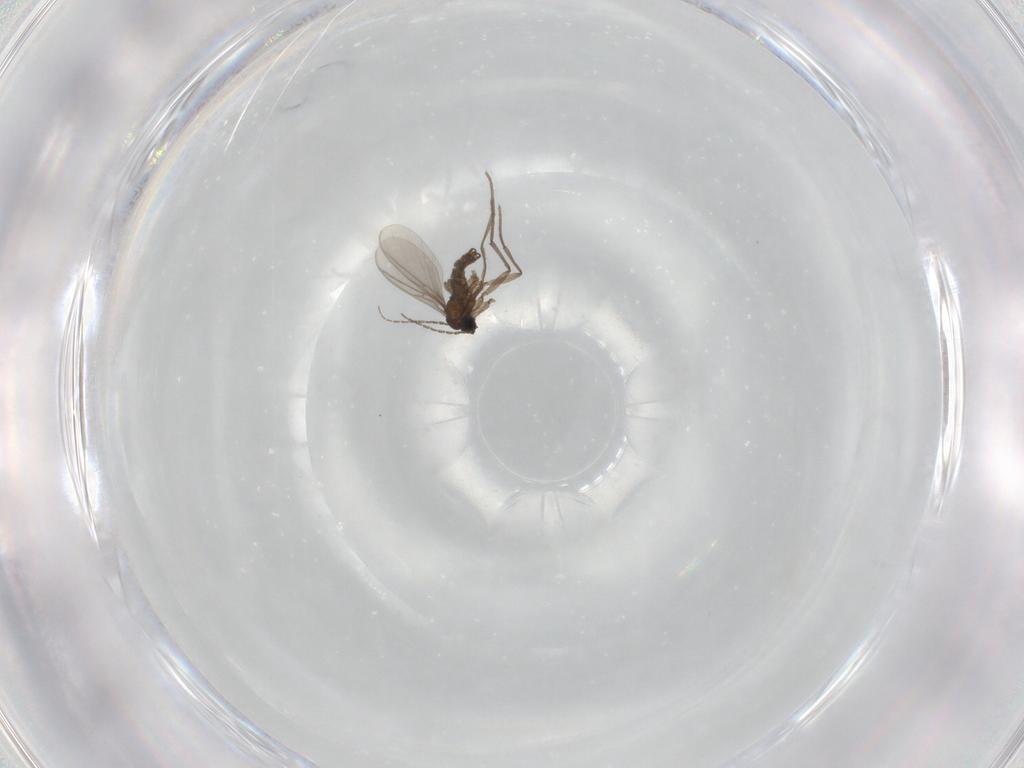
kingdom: Animalia
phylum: Arthropoda
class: Insecta
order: Diptera
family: Sciaridae
